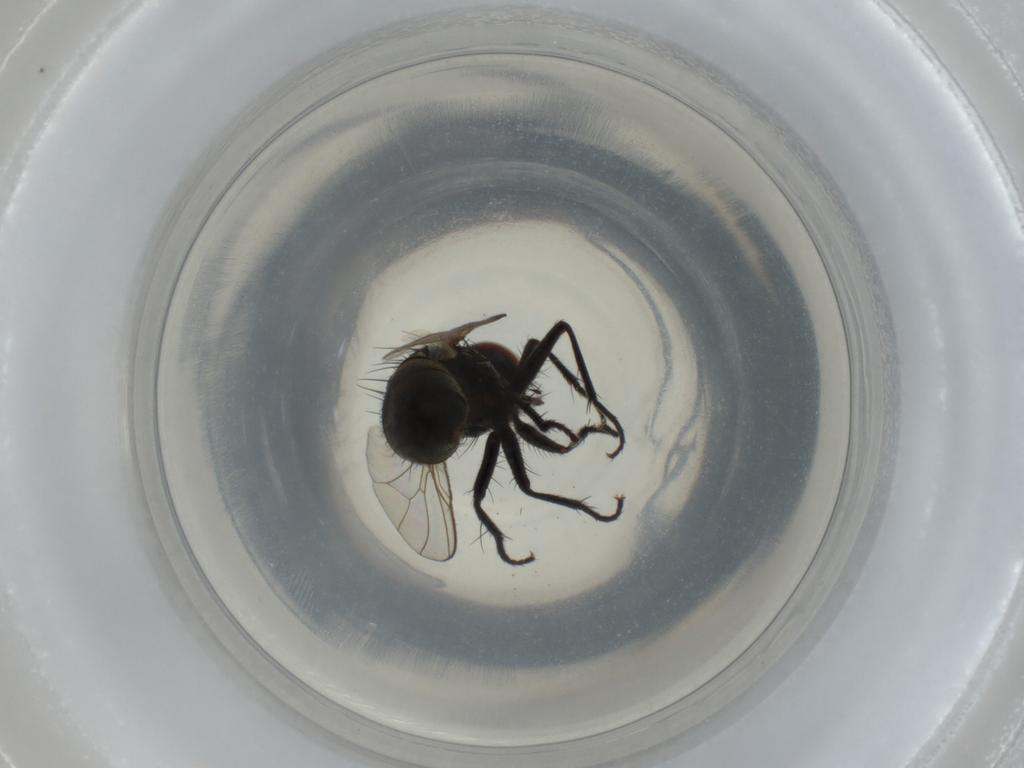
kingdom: Animalia
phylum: Arthropoda
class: Insecta
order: Diptera
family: Muscidae
